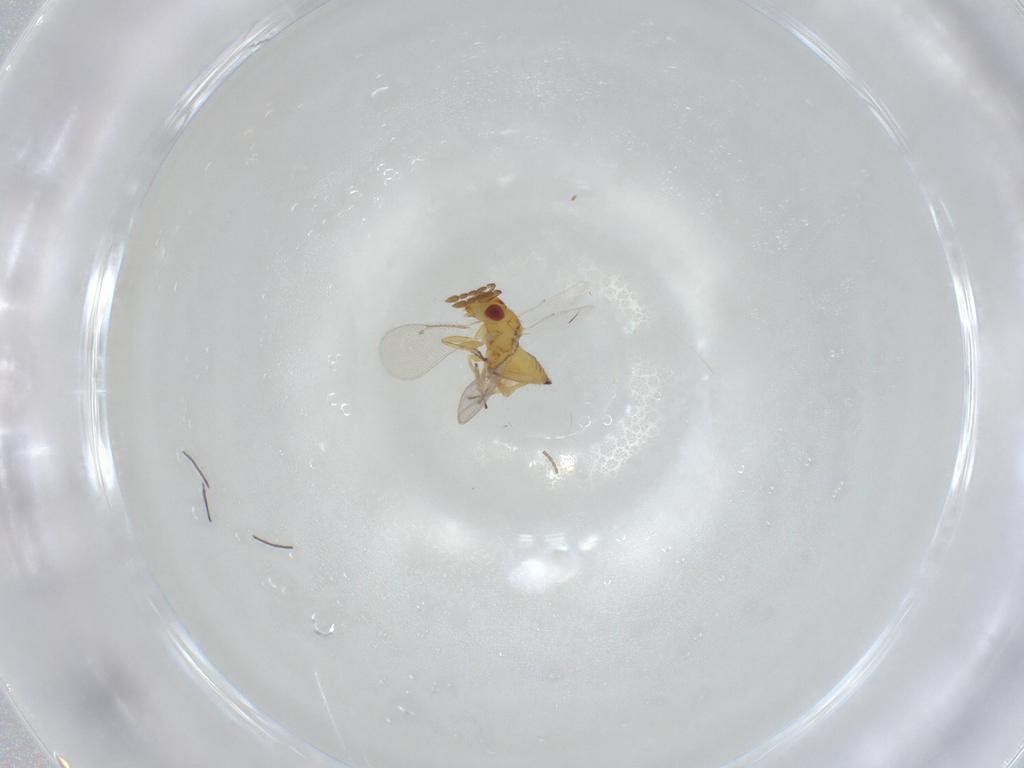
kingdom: Animalia
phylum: Arthropoda
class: Insecta
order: Hymenoptera
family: Eulophidae
